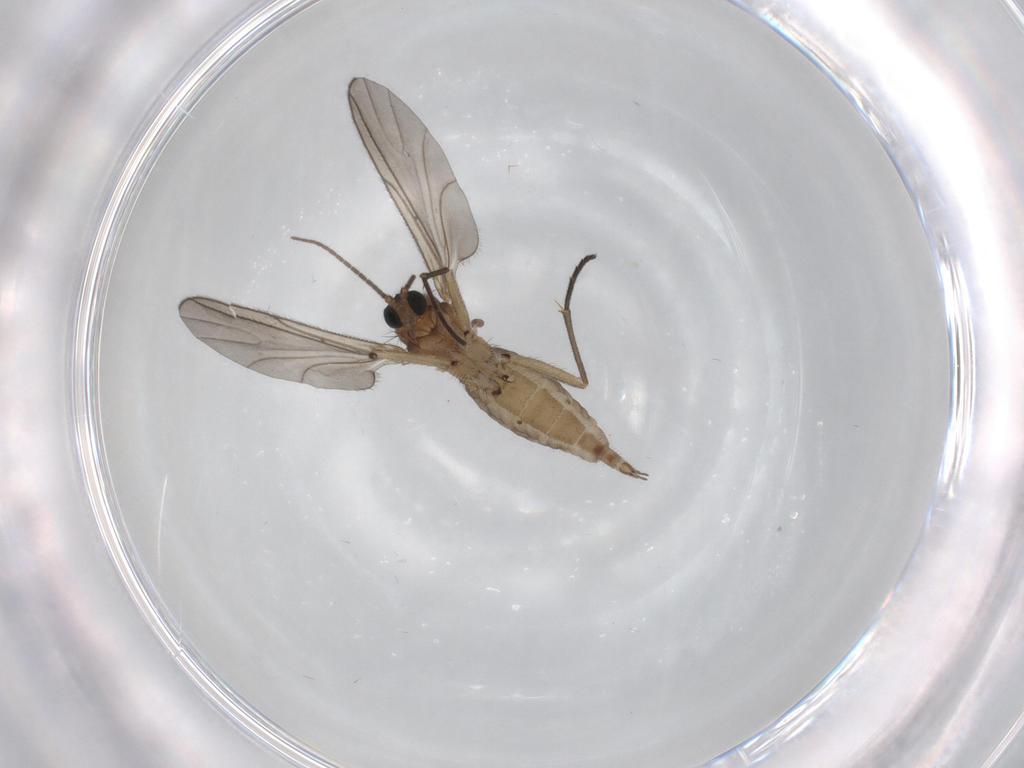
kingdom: Animalia
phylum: Arthropoda
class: Insecta
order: Diptera
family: Sciaridae
